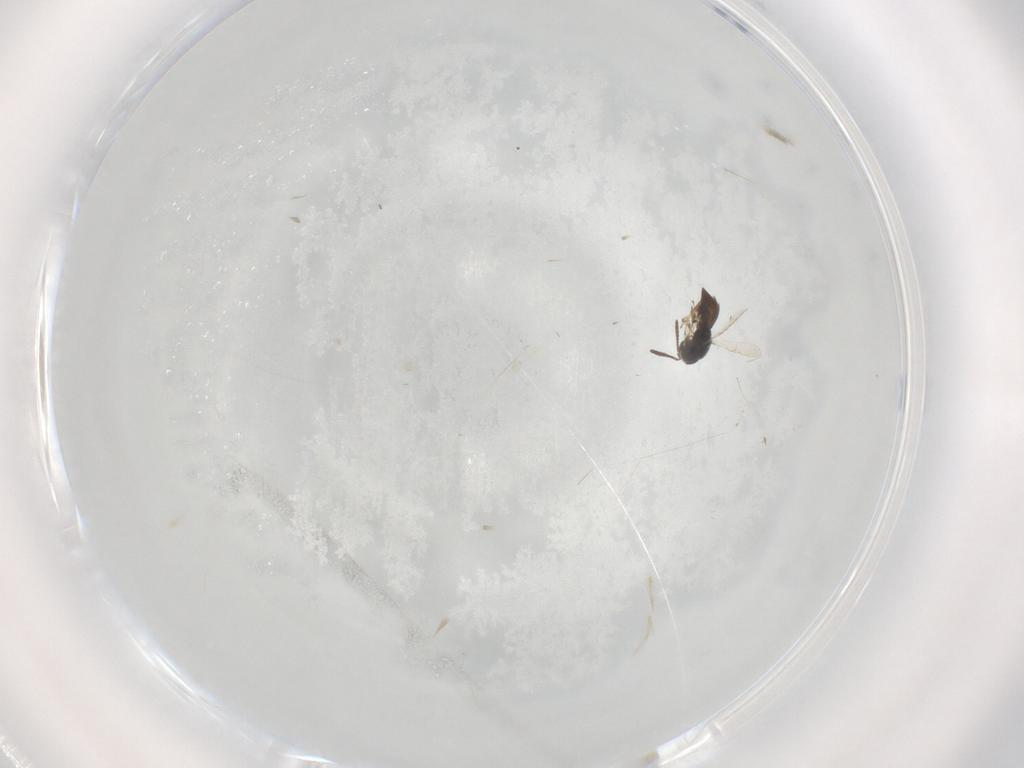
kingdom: Animalia
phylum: Arthropoda
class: Insecta
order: Hymenoptera
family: Scelionidae
